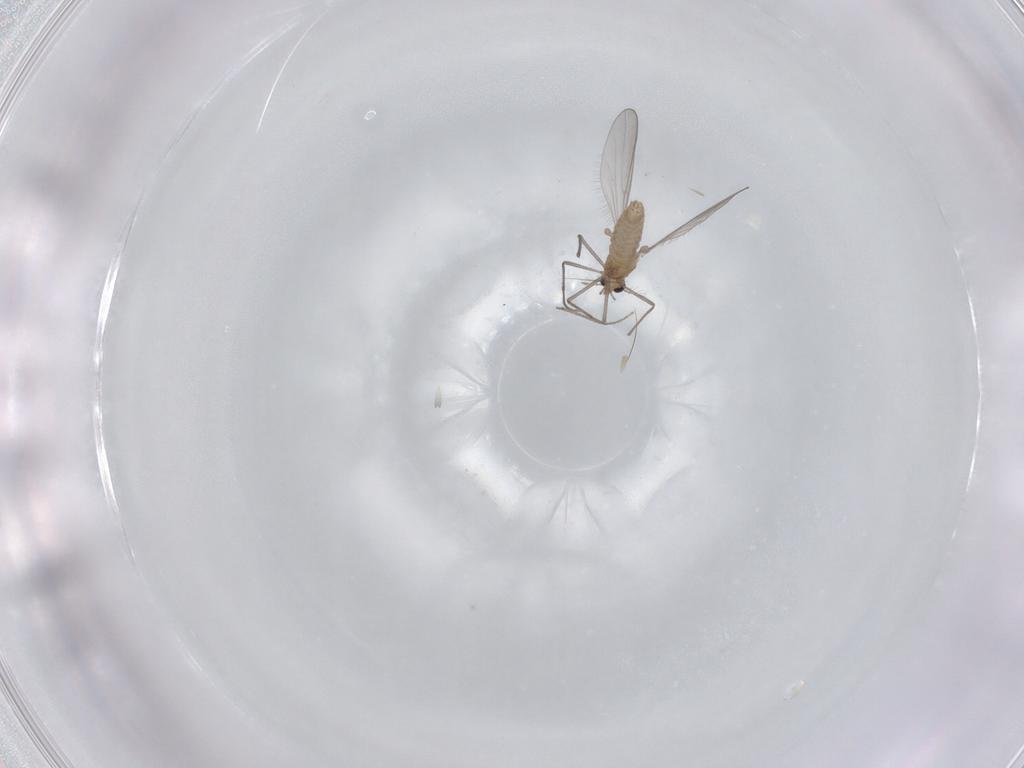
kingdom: Animalia
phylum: Arthropoda
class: Insecta
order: Diptera
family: Chironomidae
